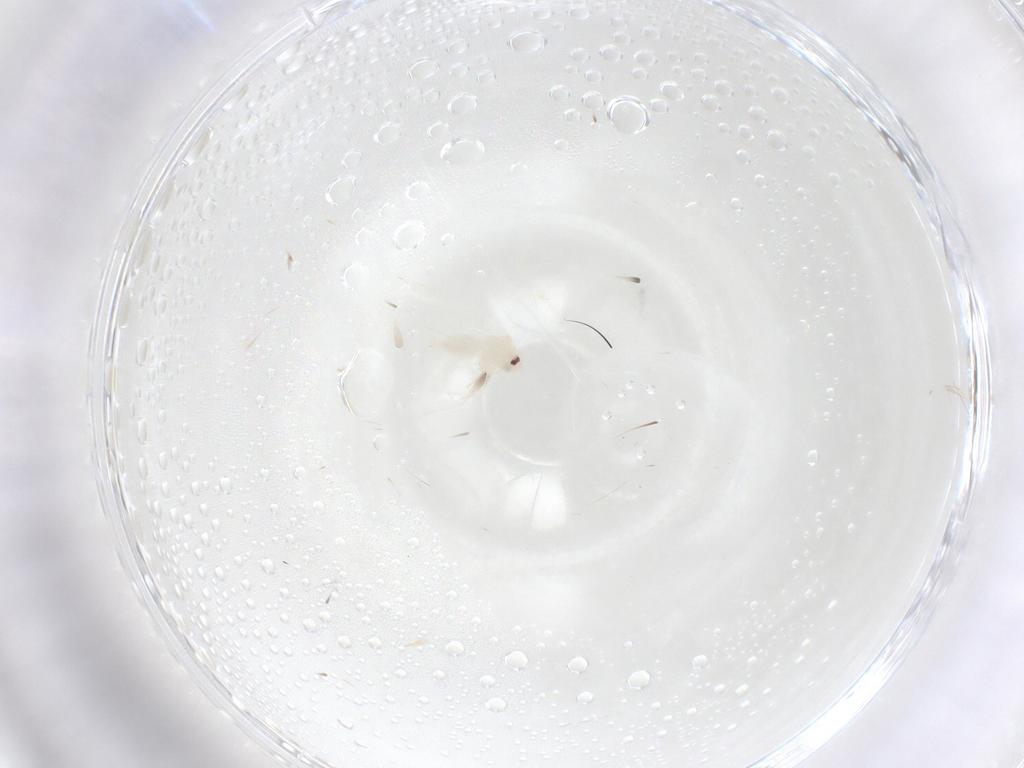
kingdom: Animalia
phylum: Arthropoda
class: Insecta
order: Hemiptera
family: Aleyrodidae
